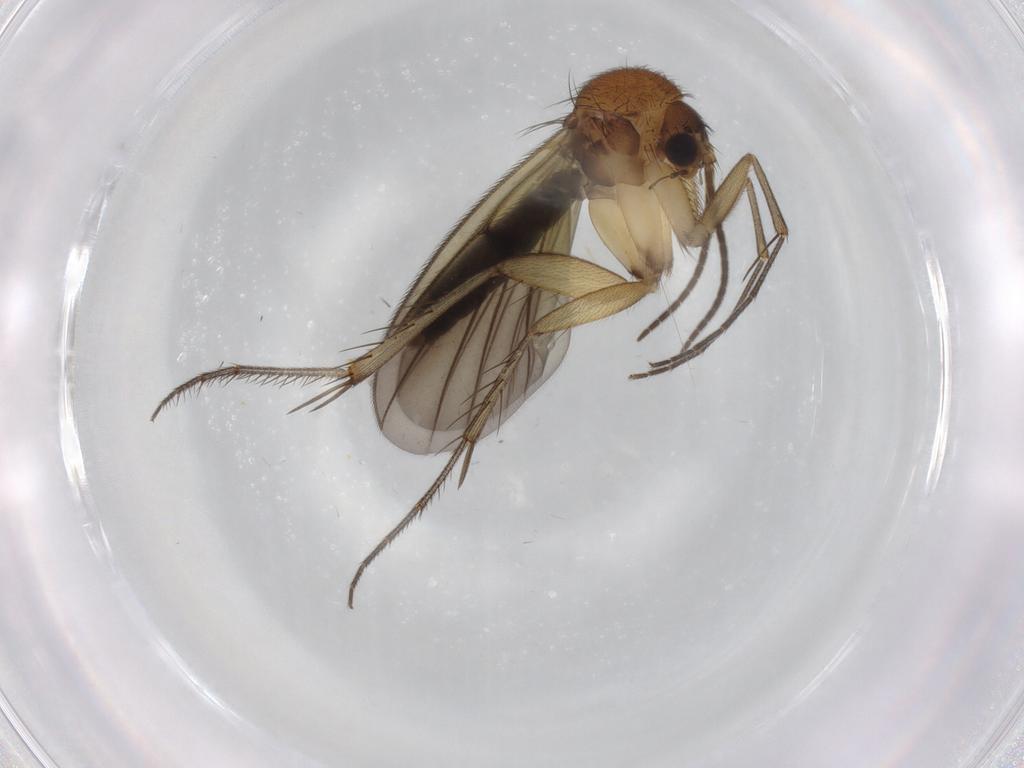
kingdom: Animalia
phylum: Arthropoda
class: Insecta
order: Diptera
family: Mycetophilidae
